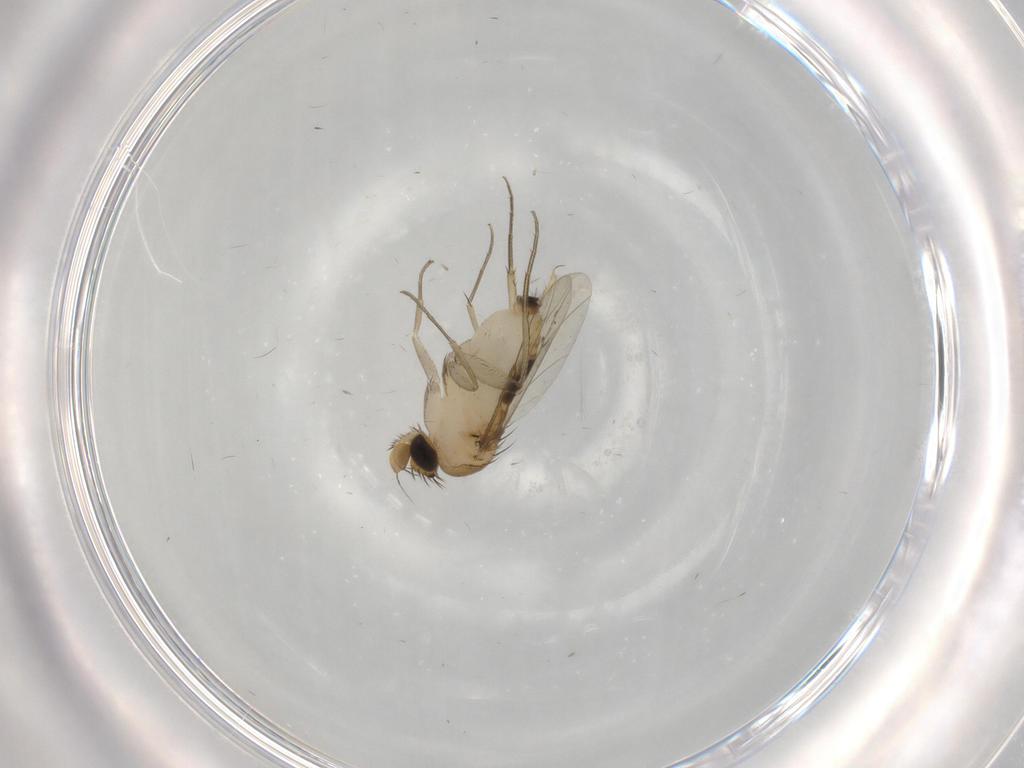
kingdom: Animalia
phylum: Arthropoda
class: Insecta
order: Diptera
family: Phoridae
